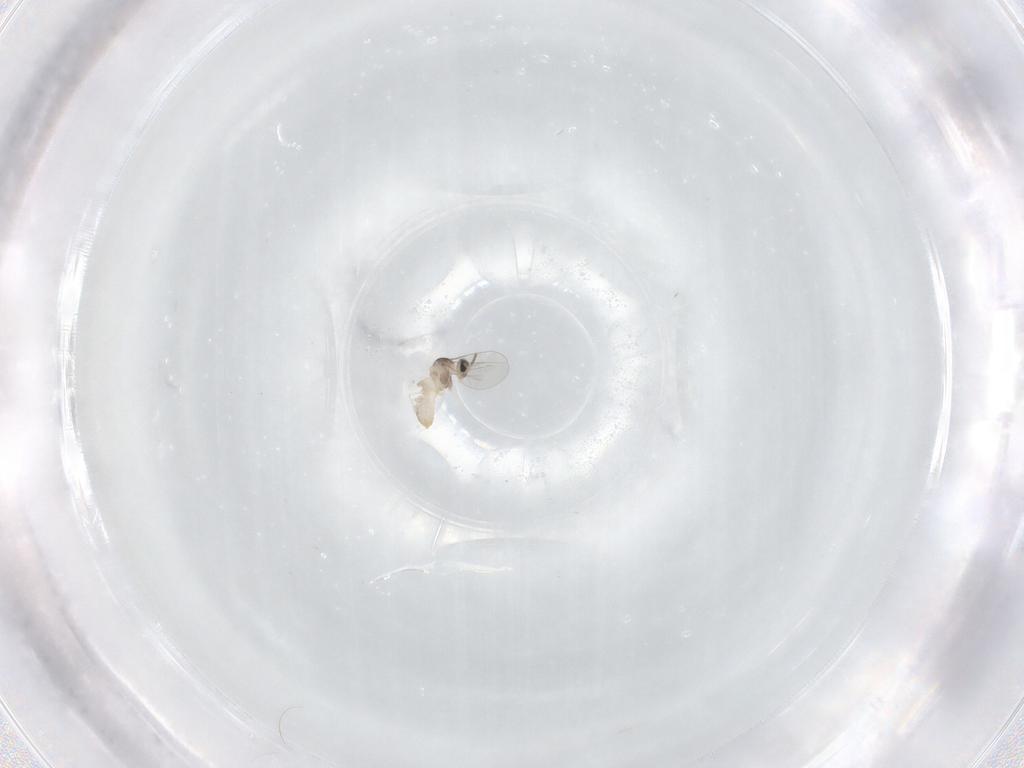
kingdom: Animalia
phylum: Arthropoda
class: Insecta
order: Diptera
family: Cecidomyiidae
